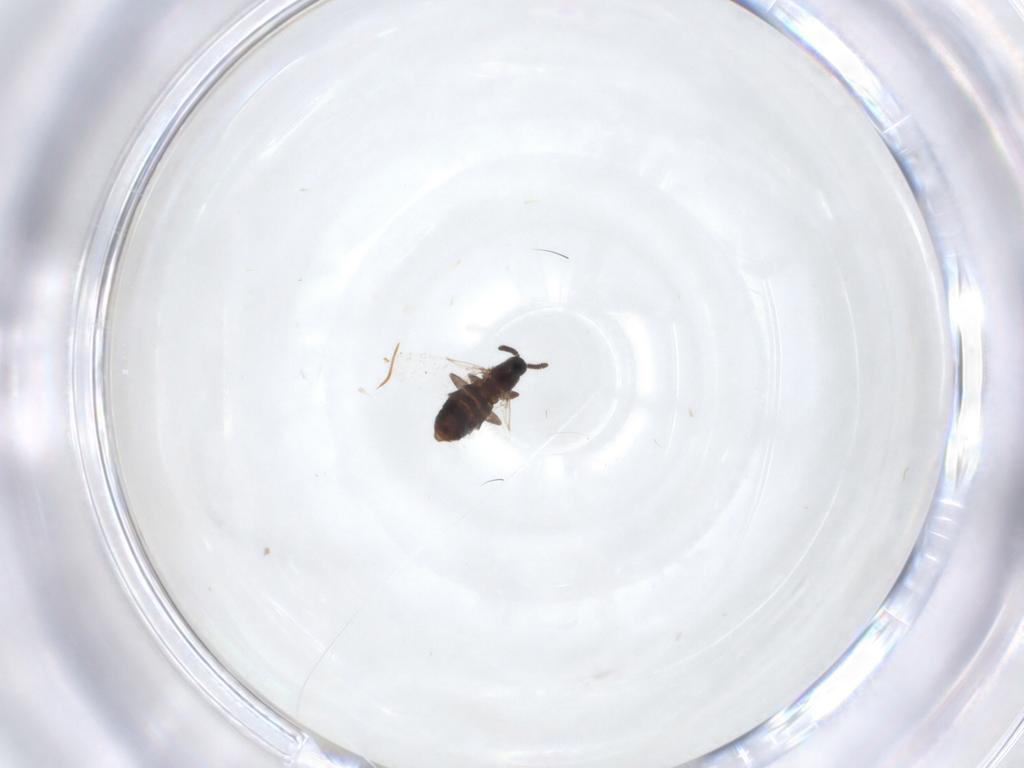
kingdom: Animalia
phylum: Arthropoda
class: Insecta
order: Diptera
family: Scatopsidae
